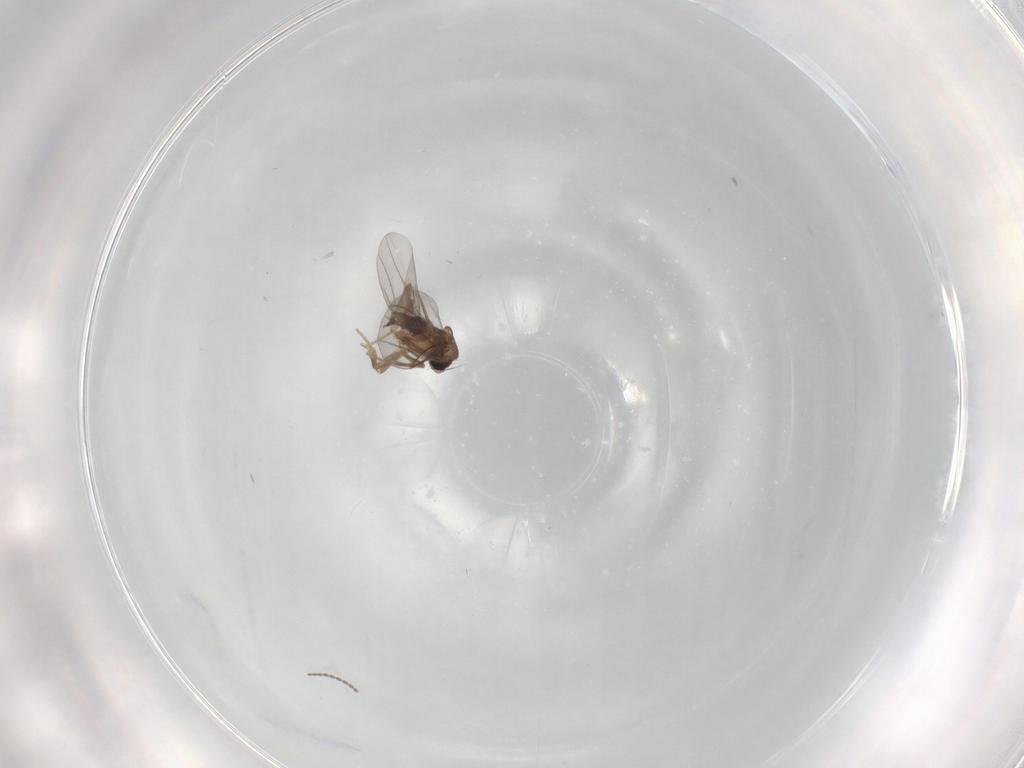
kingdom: Animalia
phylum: Arthropoda
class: Insecta
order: Diptera
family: Cecidomyiidae
